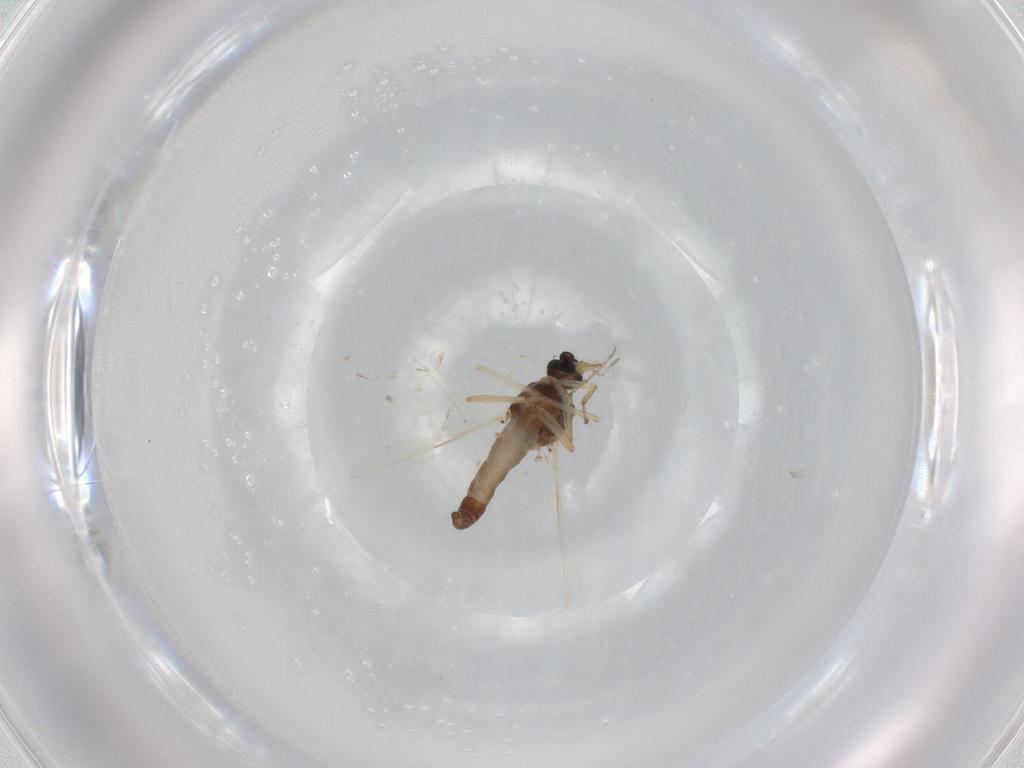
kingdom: Animalia
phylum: Arthropoda
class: Insecta
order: Diptera
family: Ceratopogonidae
